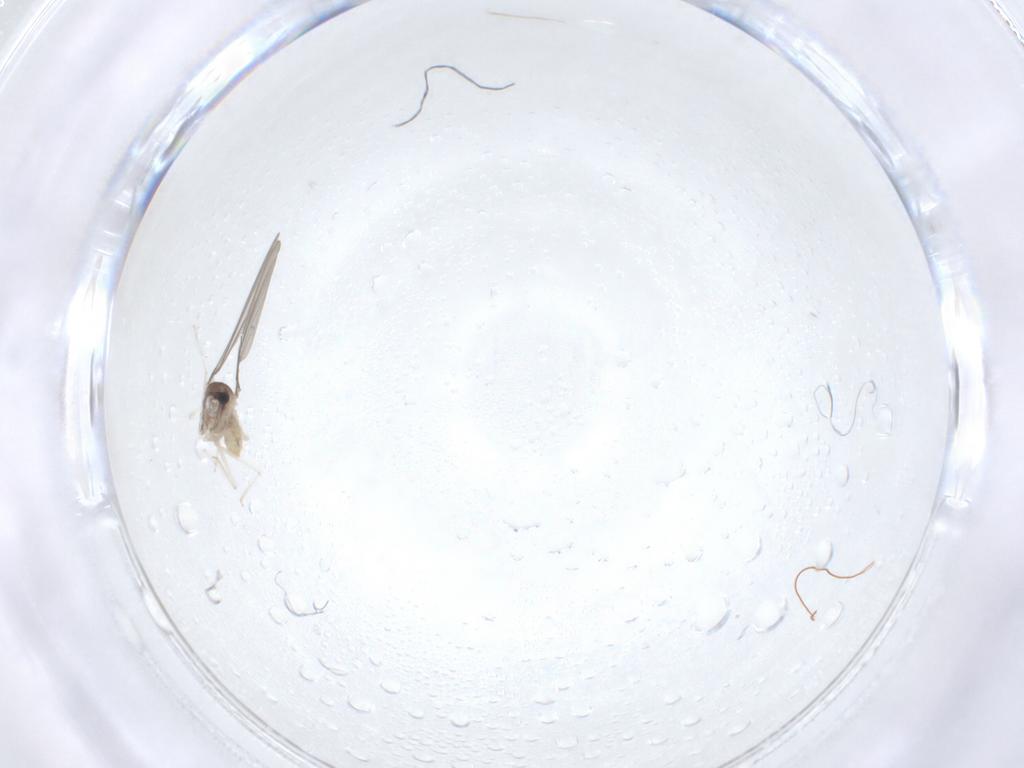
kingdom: Animalia
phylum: Arthropoda
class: Insecta
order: Diptera
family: Cecidomyiidae
